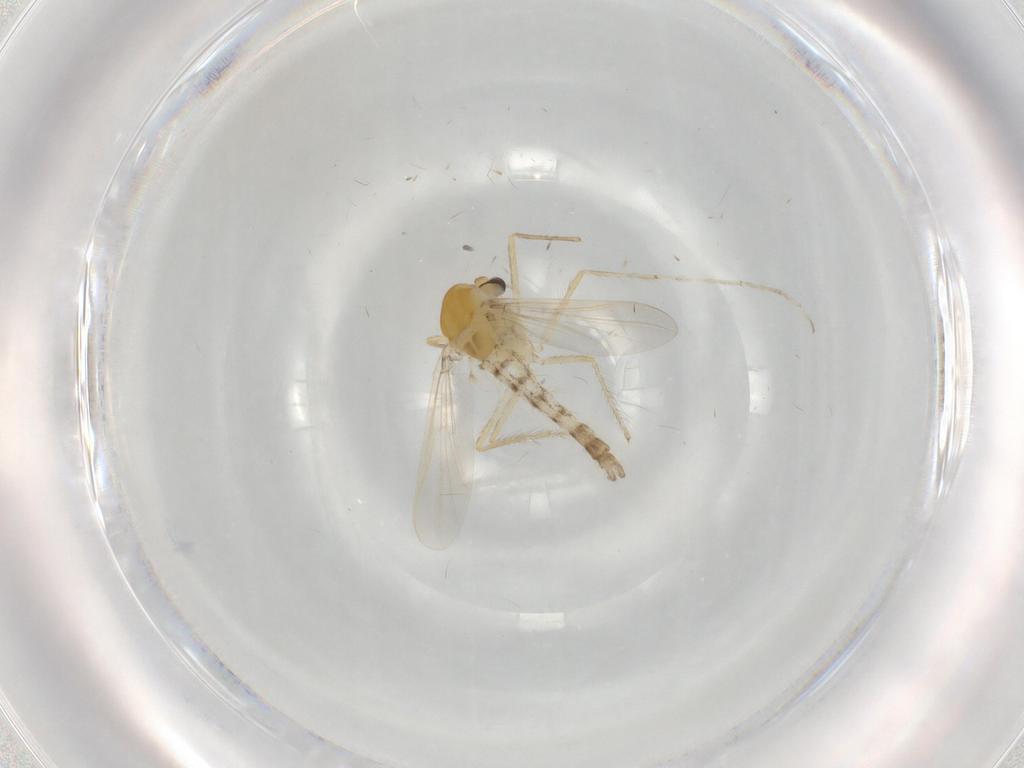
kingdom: Animalia
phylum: Arthropoda
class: Insecta
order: Diptera
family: Chironomidae
